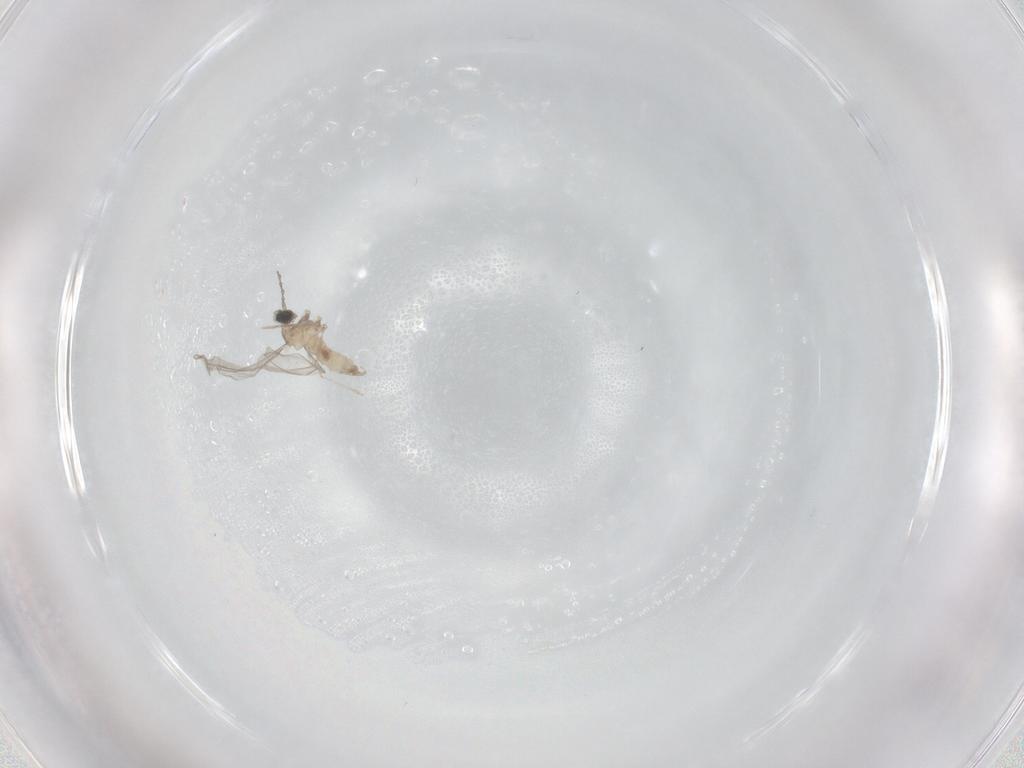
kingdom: Animalia
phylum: Arthropoda
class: Insecta
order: Diptera
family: Cecidomyiidae
